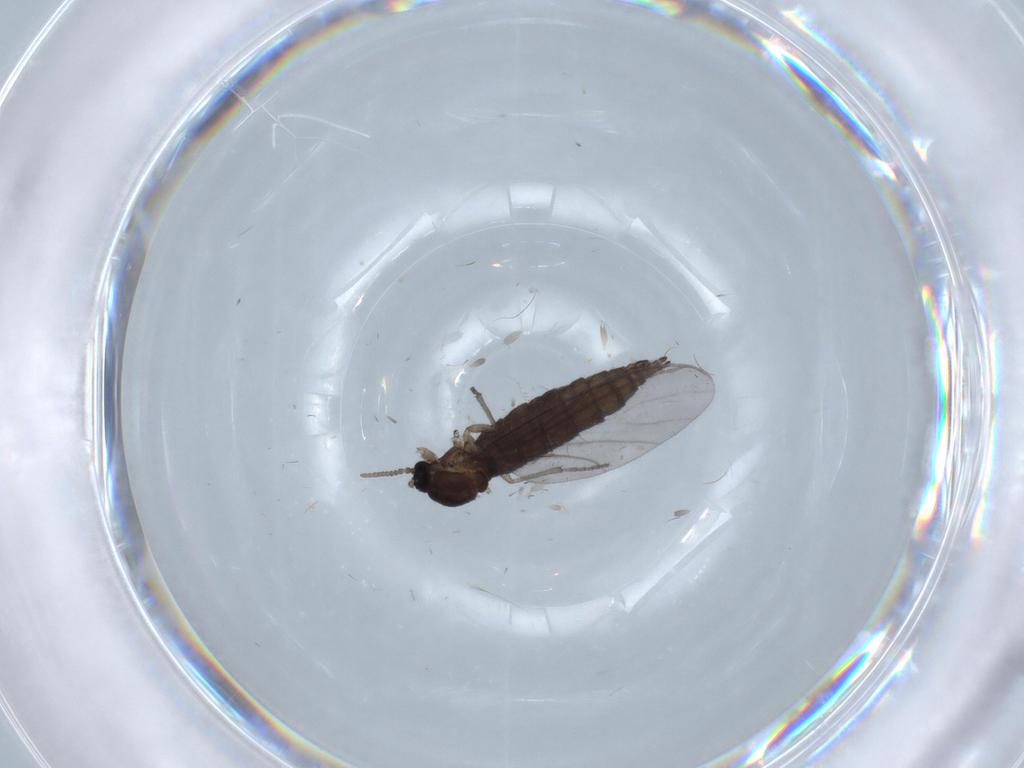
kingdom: Animalia
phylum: Arthropoda
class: Insecta
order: Diptera
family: Sciaridae
